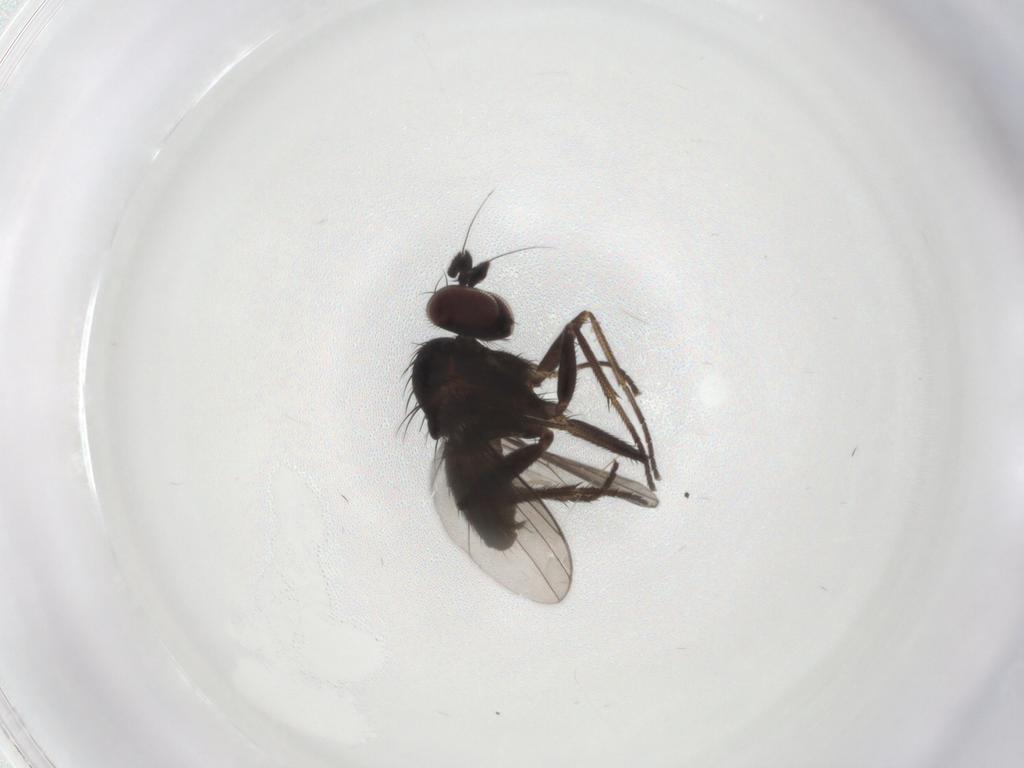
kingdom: Animalia
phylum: Arthropoda
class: Insecta
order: Diptera
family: Dolichopodidae
